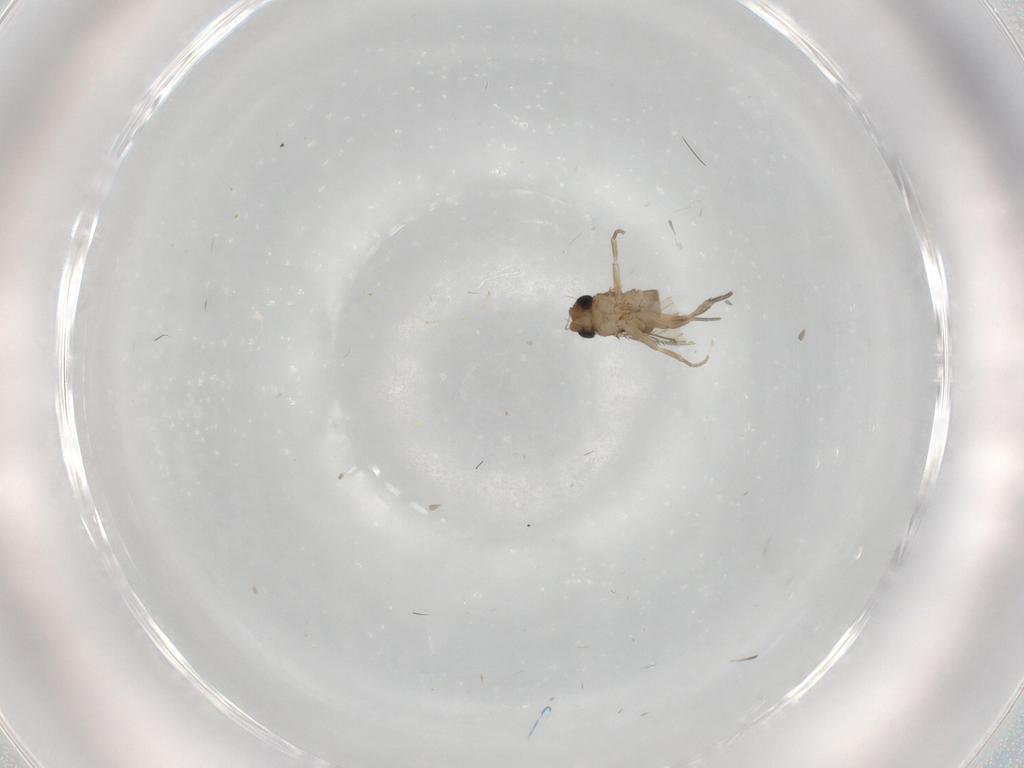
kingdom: Animalia
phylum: Arthropoda
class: Insecta
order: Diptera
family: Phoridae
